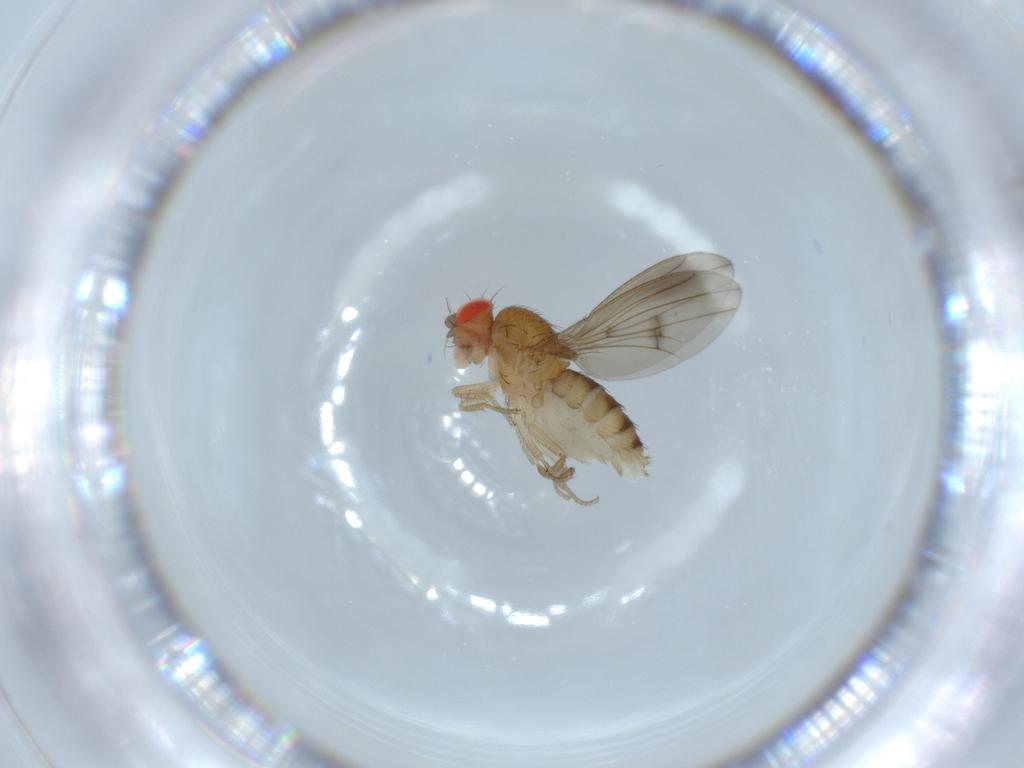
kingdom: Animalia
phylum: Arthropoda
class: Insecta
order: Diptera
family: Drosophilidae
